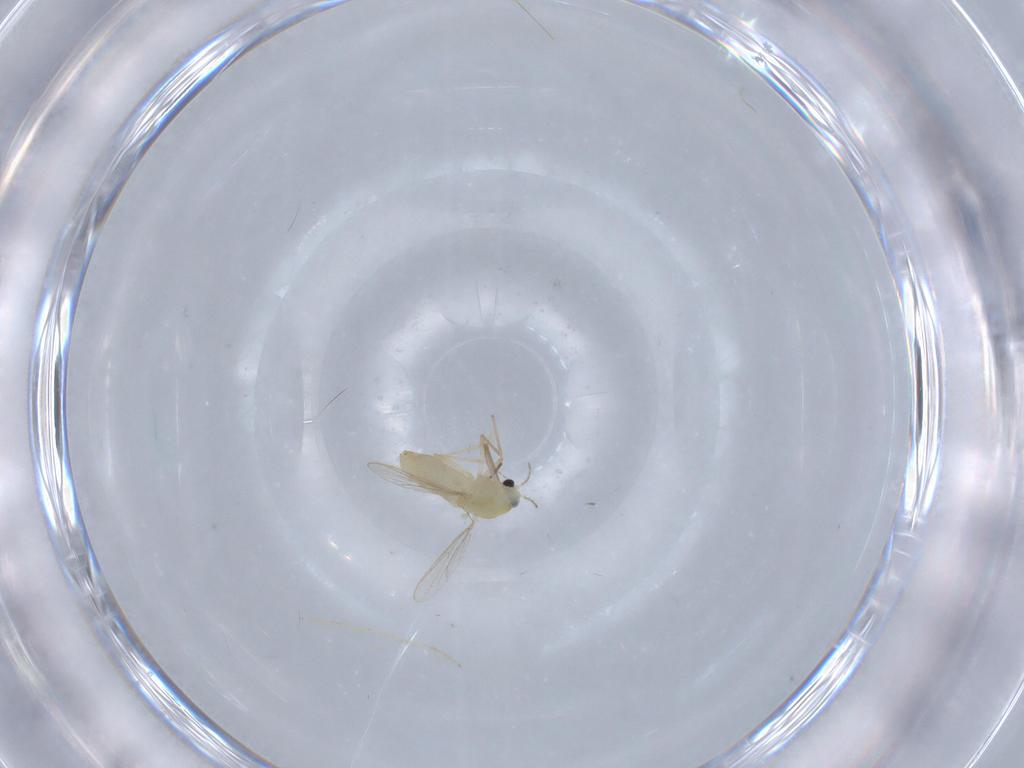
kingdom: Animalia
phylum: Arthropoda
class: Insecta
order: Diptera
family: Chironomidae
